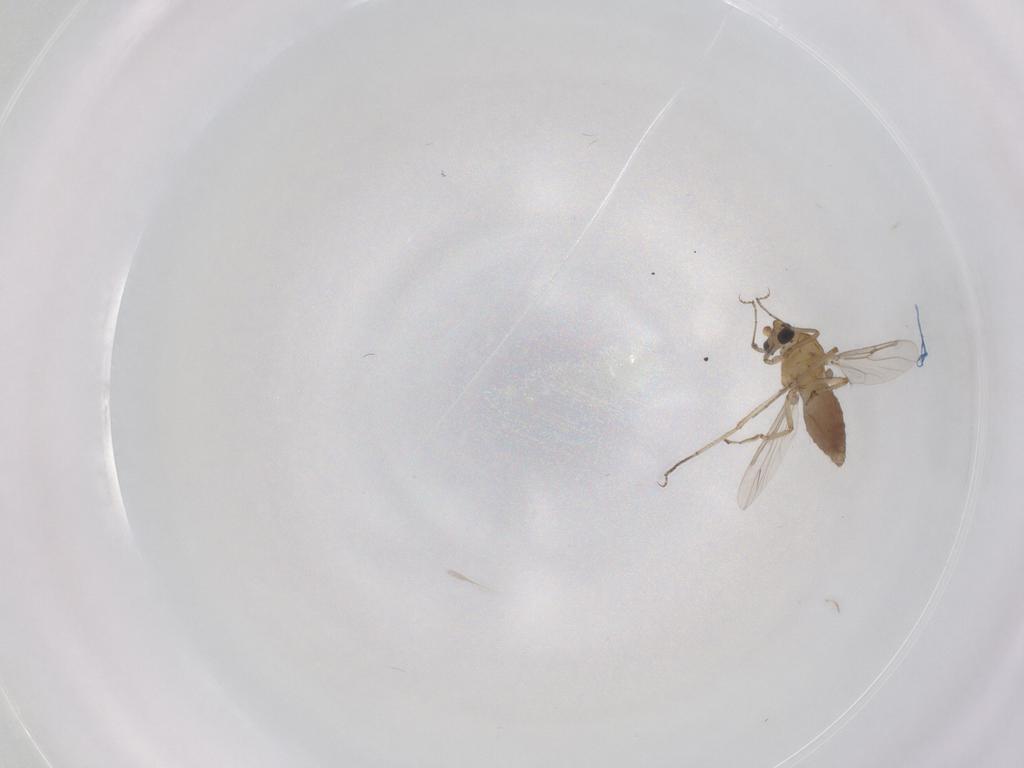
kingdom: Animalia
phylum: Arthropoda
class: Insecta
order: Diptera
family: Ceratopogonidae
